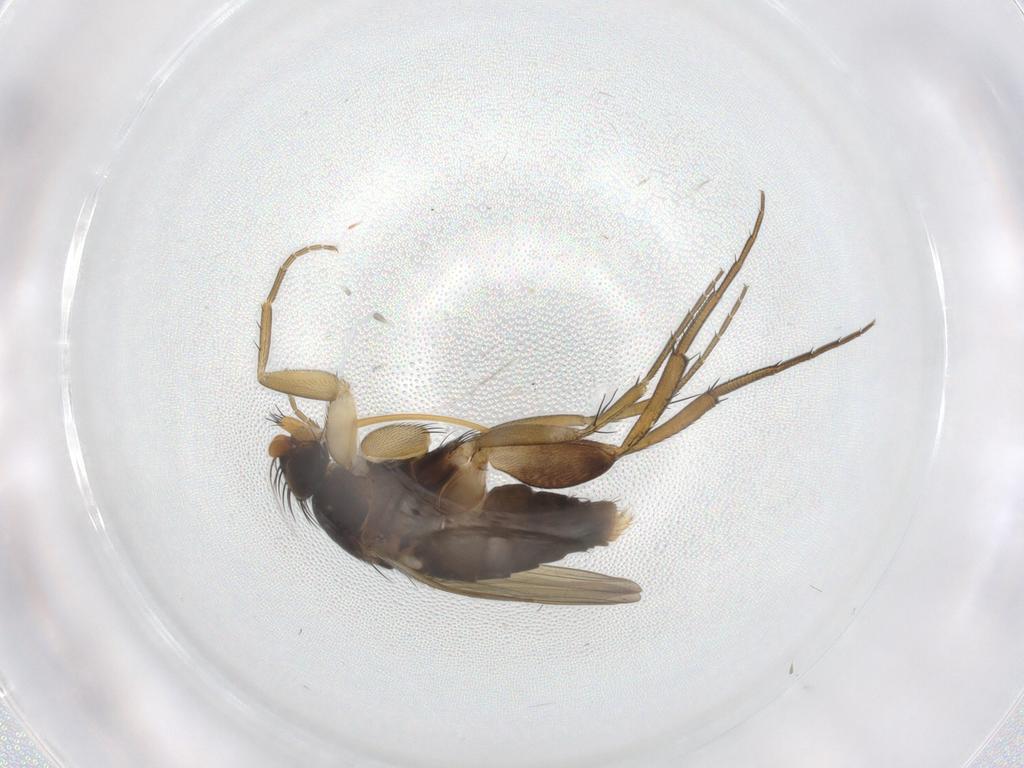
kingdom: Animalia
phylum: Arthropoda
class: Insecta
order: Diptera
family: Phoridae
